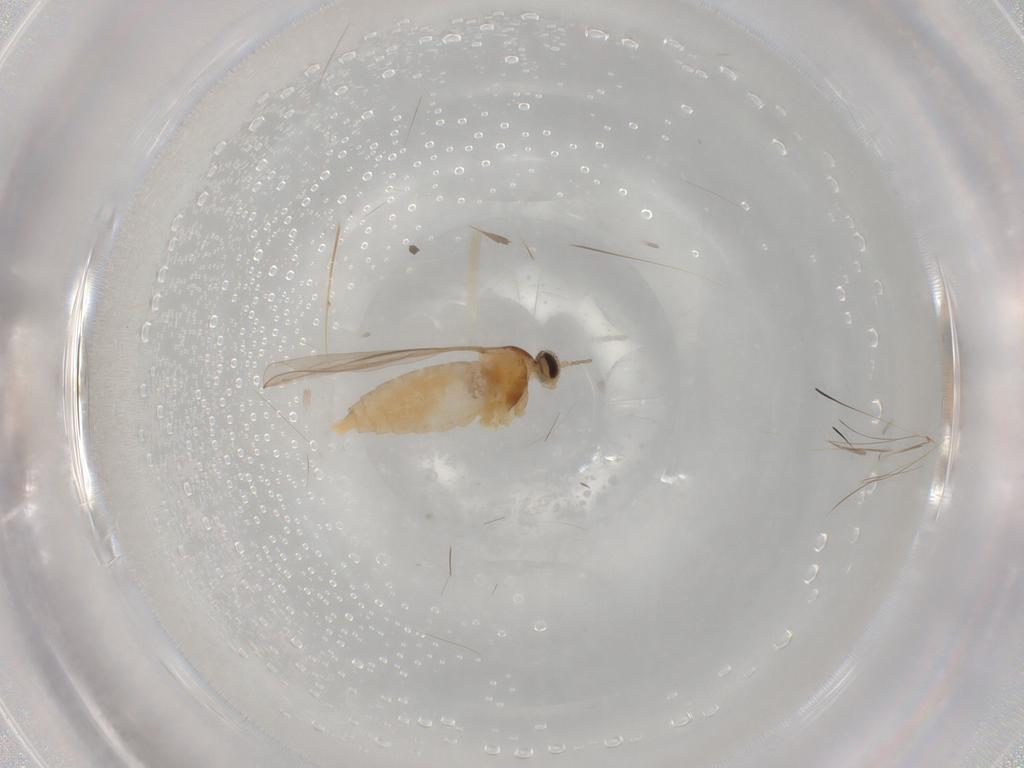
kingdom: Animalia
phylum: Arthropoda
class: Insecta
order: Diptera
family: Cecidomyiidae
